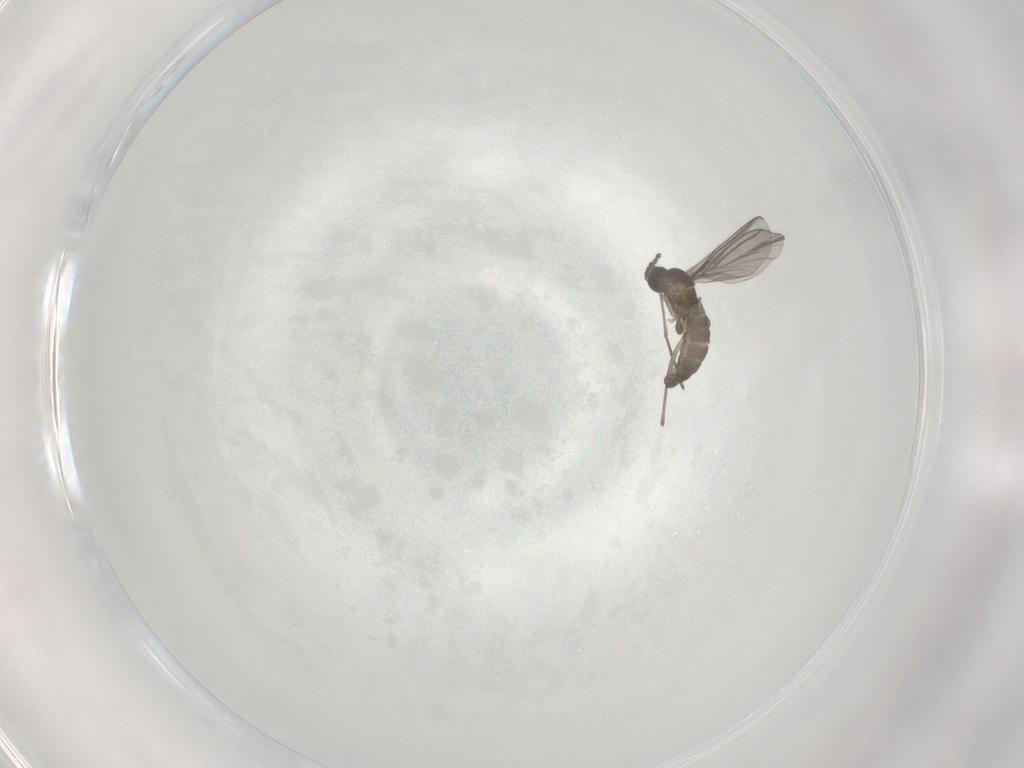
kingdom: Animalia
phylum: Arthropoda
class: Insecta
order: Diptera
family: Sciaridae
